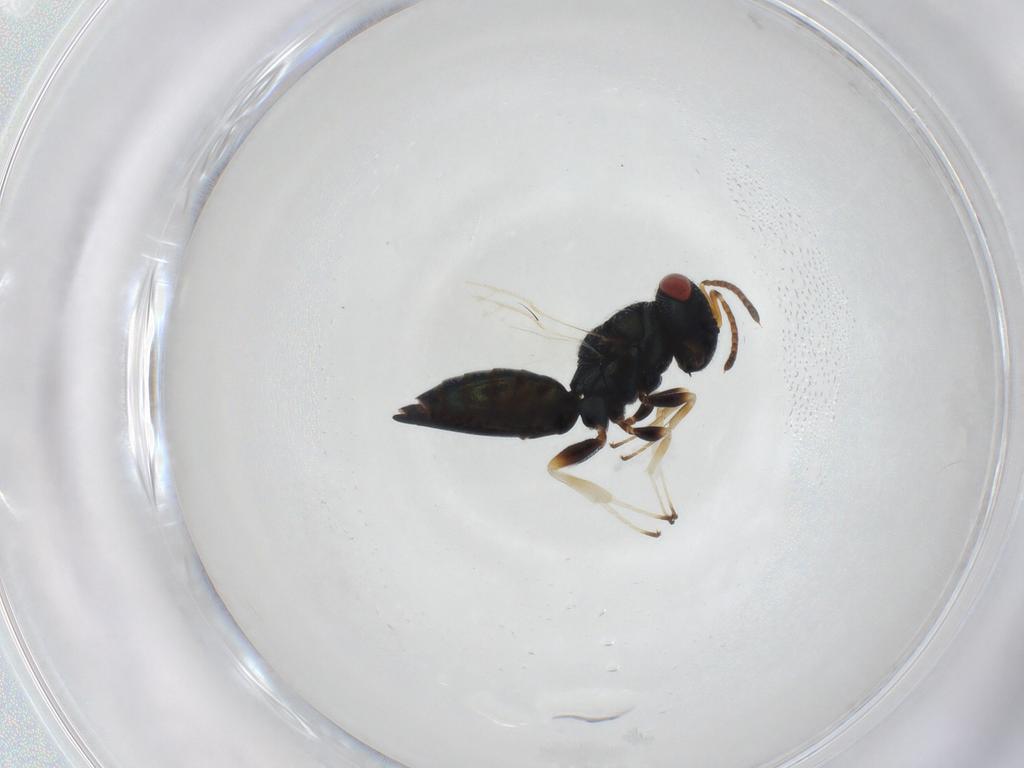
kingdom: Animalia
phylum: Arthropoda
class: Insecta
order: Hymenoptera
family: Pteromalidae
